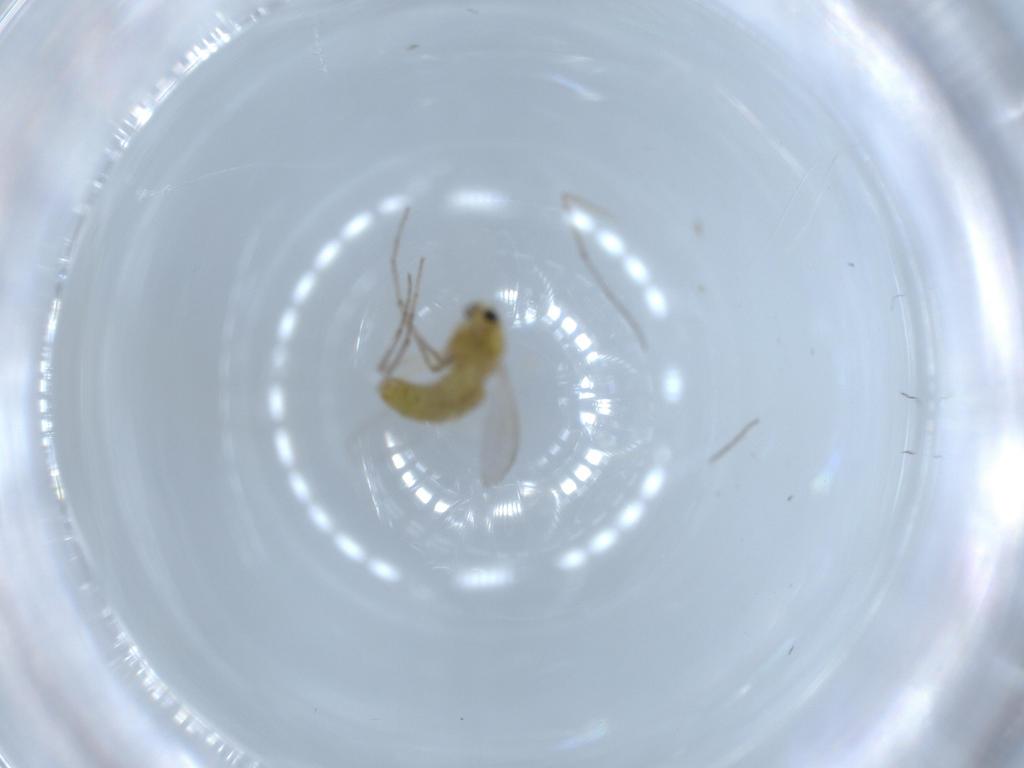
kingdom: Animalia
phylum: Arthropoda
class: Insecta
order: Diptera
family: Chironomidae
